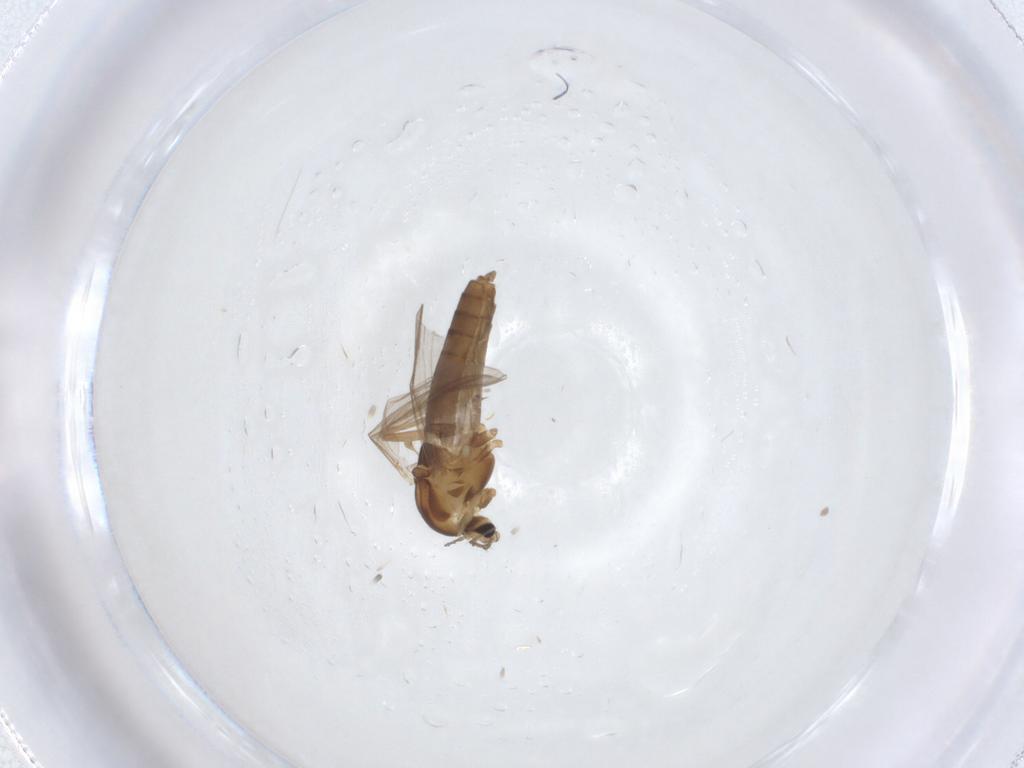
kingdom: Animalia
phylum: Arthropoda
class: Insecta
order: Diptera
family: Chironomidae
